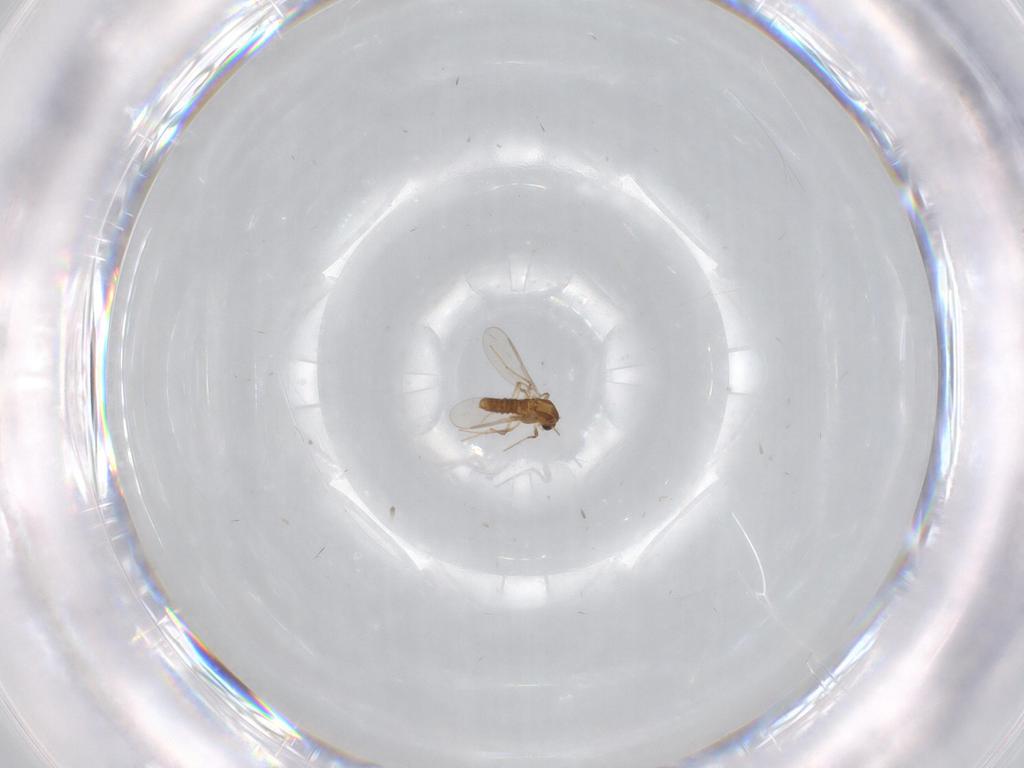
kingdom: Animalia
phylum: Arthropoda
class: Insecta
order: Diptera
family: Chironomidae
